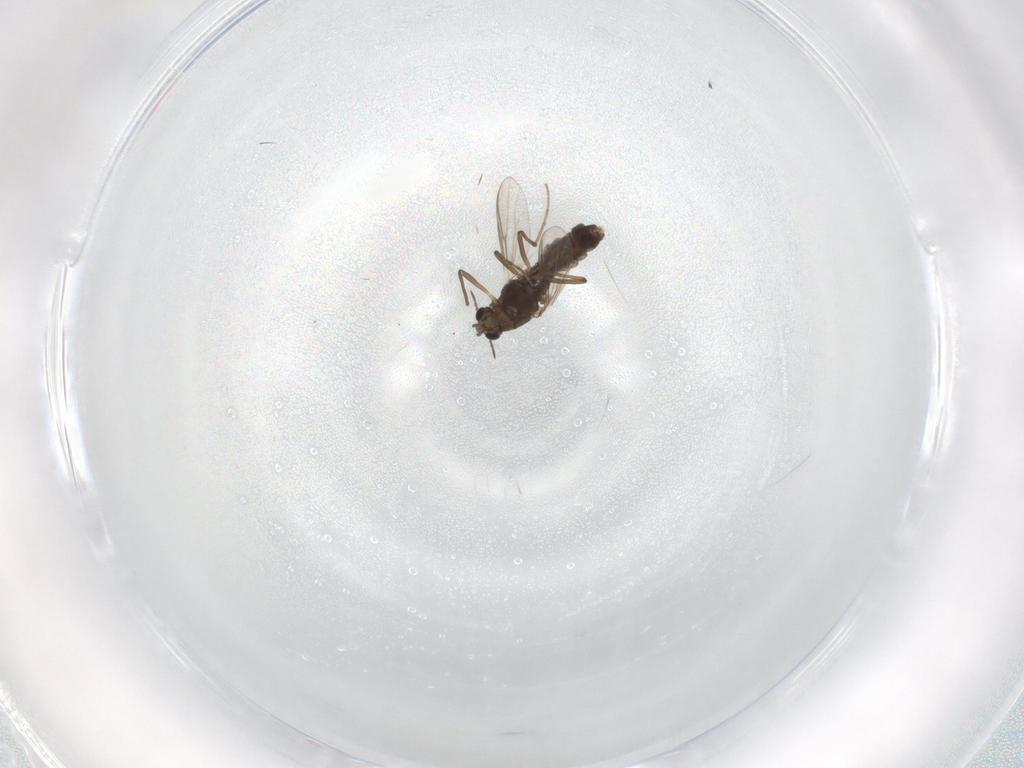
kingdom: Animalia
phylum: Arthropoda
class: Insecta
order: Diptera
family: Chironomidae
